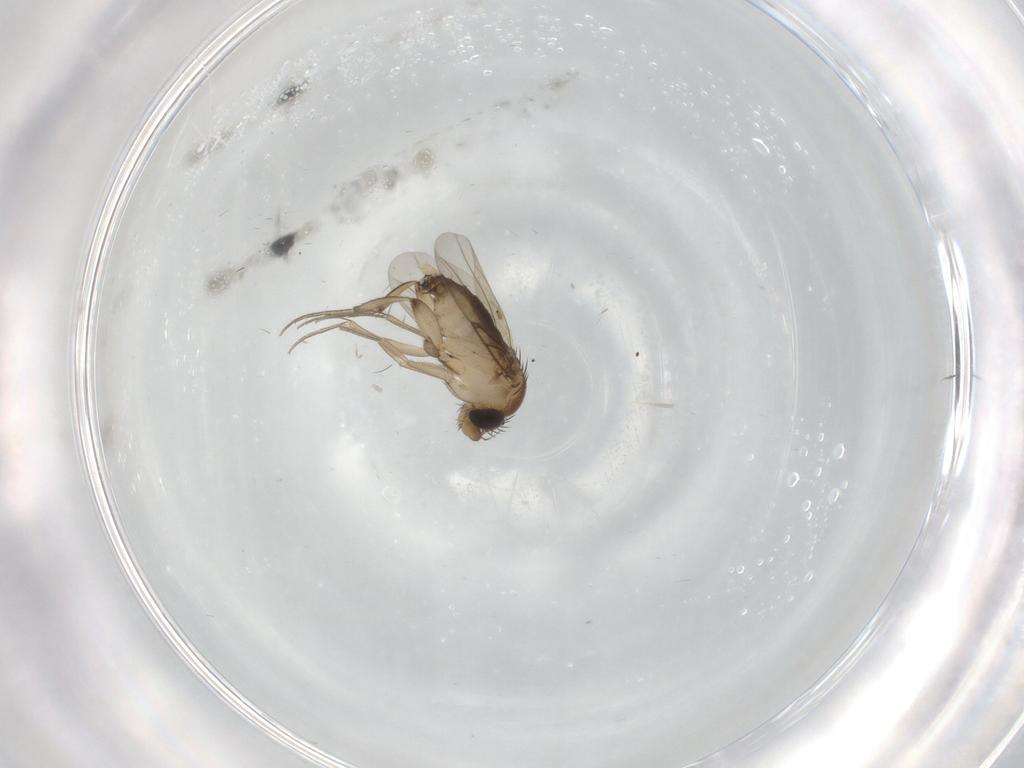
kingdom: Animalia
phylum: Arthropoda
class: Insecta
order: Diptera
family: Phoridae
